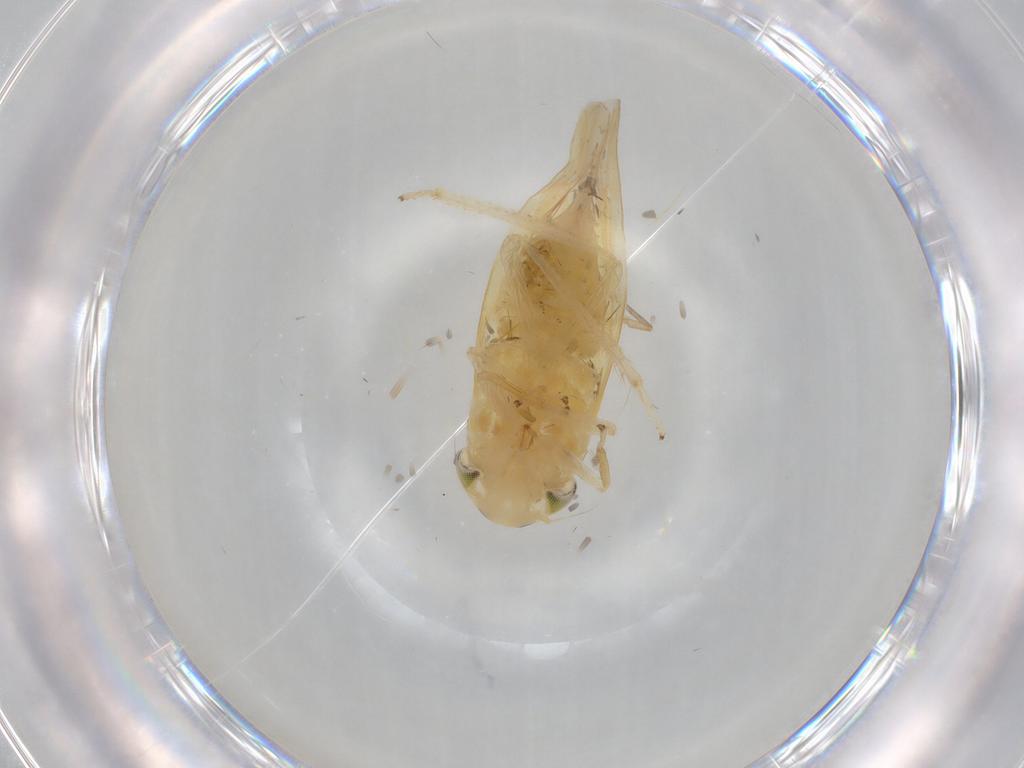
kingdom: Animalia
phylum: Arthropoda
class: Insecta
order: Hemiptera
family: Cicadellidae
